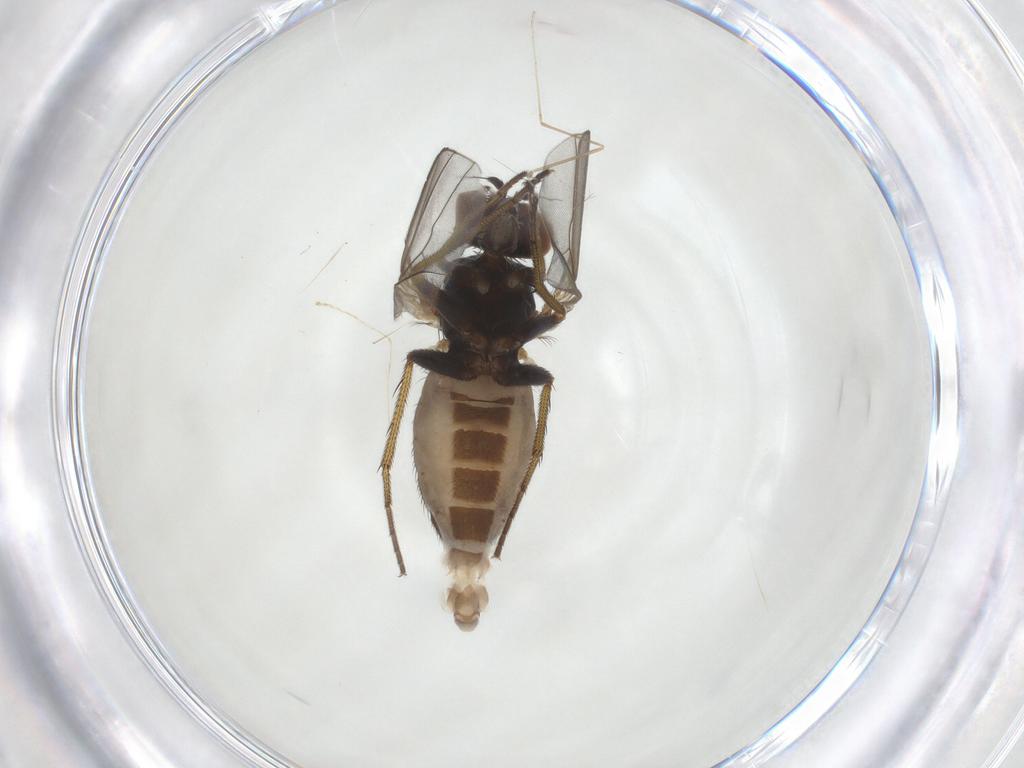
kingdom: Animalia
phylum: Arthropoda
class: Insecta
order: Diptera
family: Dolichopodidae
